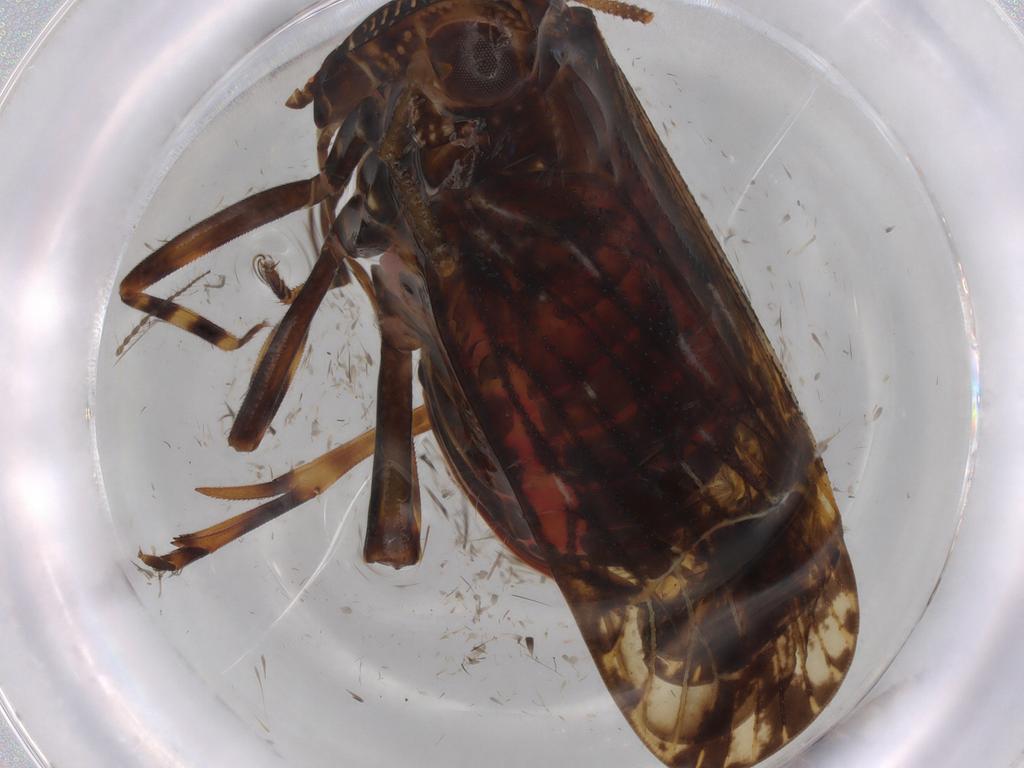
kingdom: Animalia
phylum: Arthropoda
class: Insecta
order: Hemiptera
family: Delphacidae
